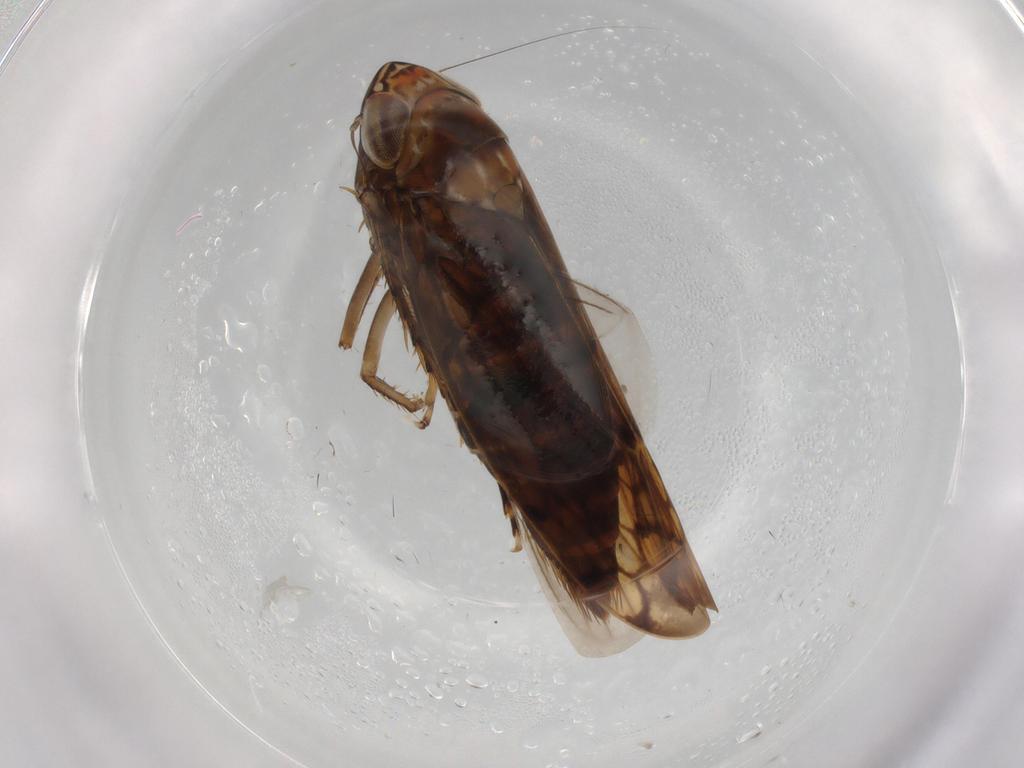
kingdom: Animalia
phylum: Arthropoda
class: Insecta
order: Hemiptera
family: Cicadellidae
